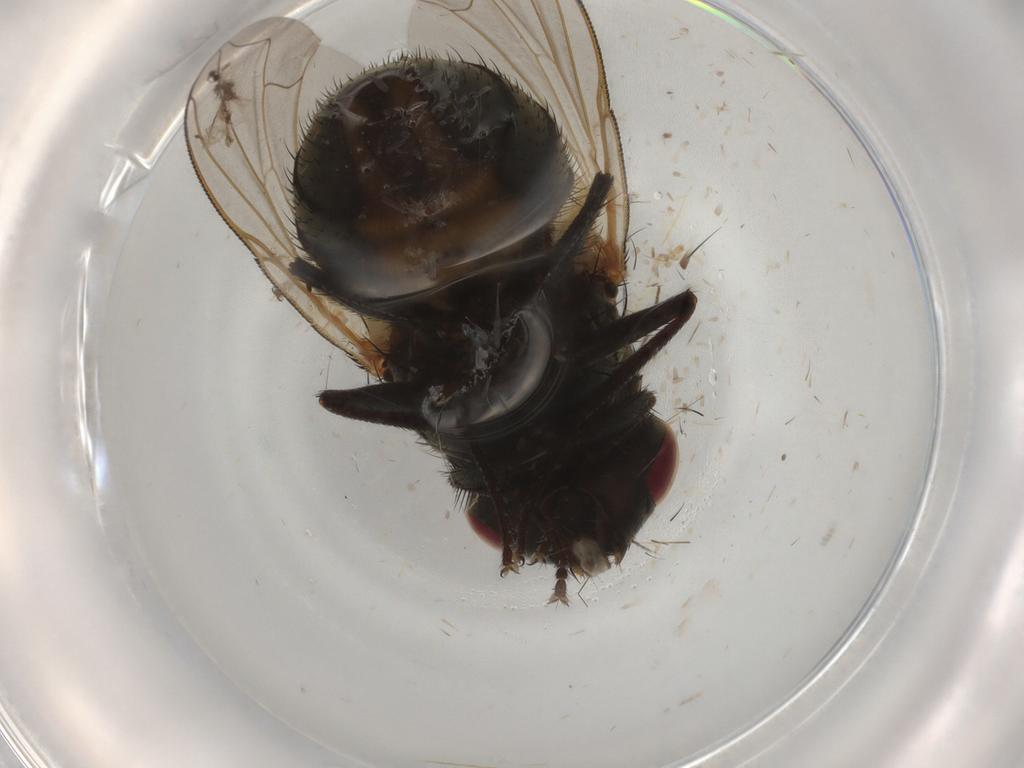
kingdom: Animalia
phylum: Arthropoda
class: Insecta
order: Diptera
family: Ulidiidae
